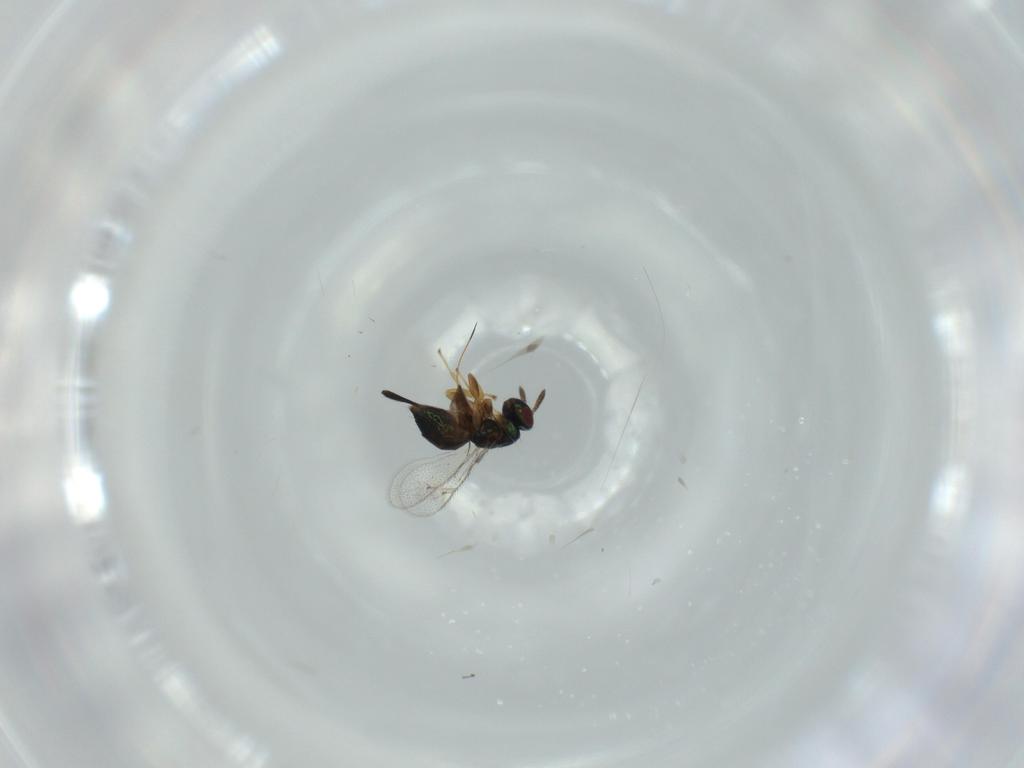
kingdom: Animalia
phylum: Arthropoda
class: Insecta
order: Hymenoptera
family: Torymidae
